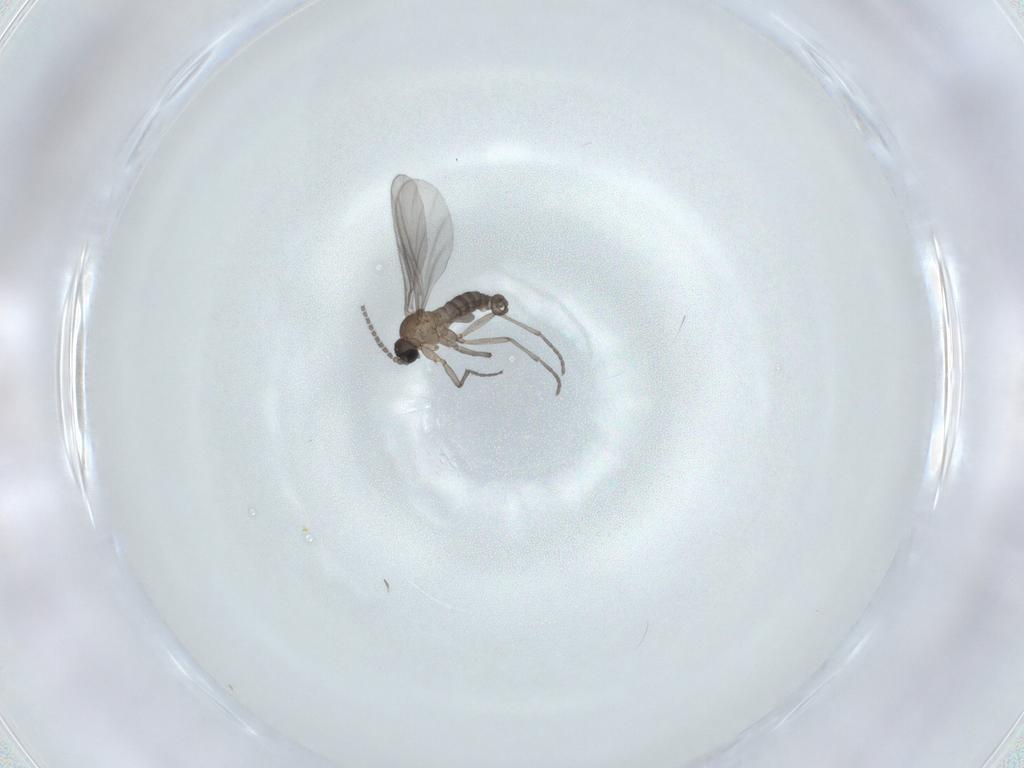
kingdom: Animalia
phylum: Arthropoda
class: Insecta
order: Diptera
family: Sciaridae
